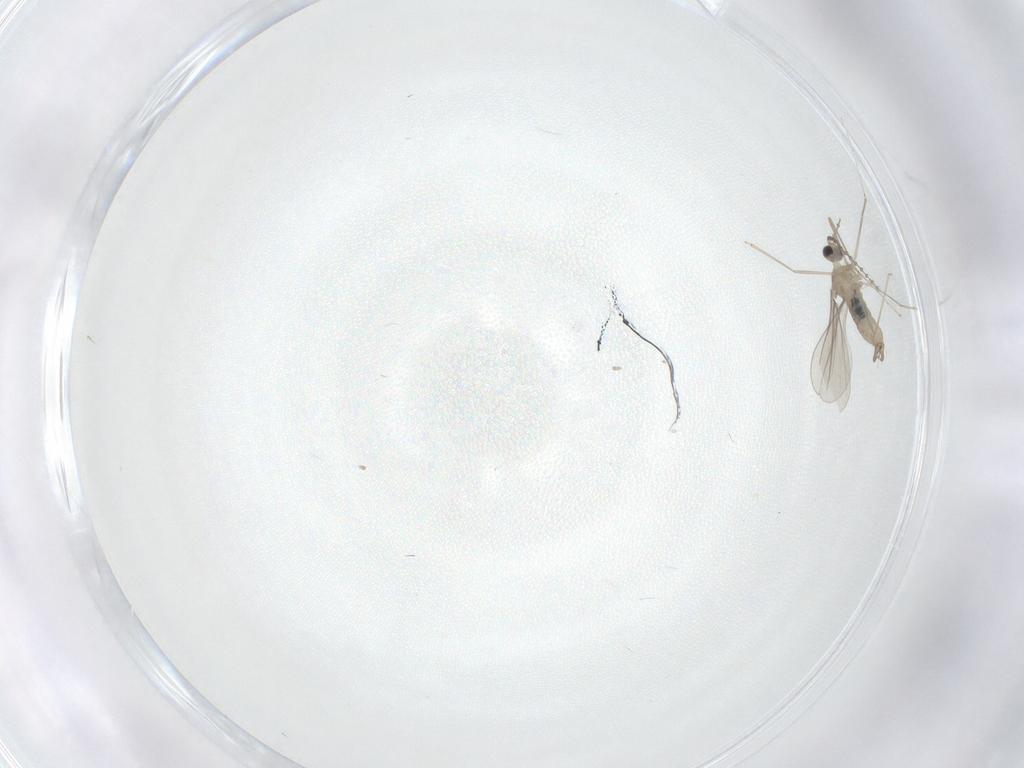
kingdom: Animalia
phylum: Arthropoda
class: Insecta
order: Diptera
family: Cecidomyiidae
